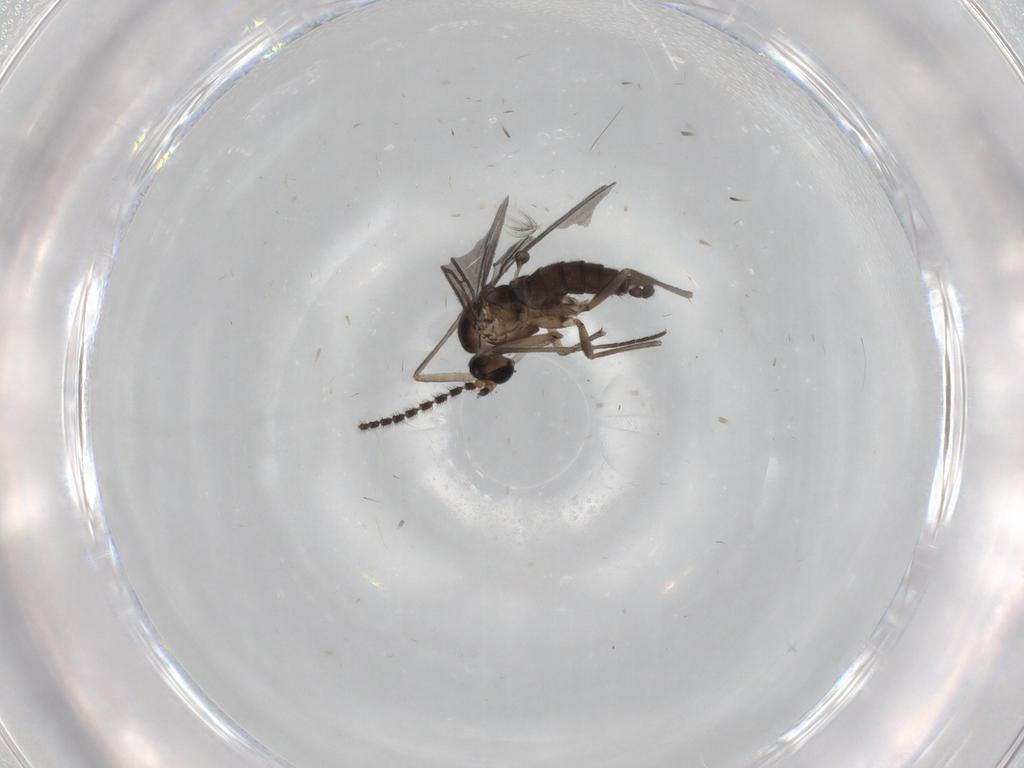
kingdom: Animalia
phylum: Arthropoda
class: Insecta
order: Diptera
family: Sciaridae
